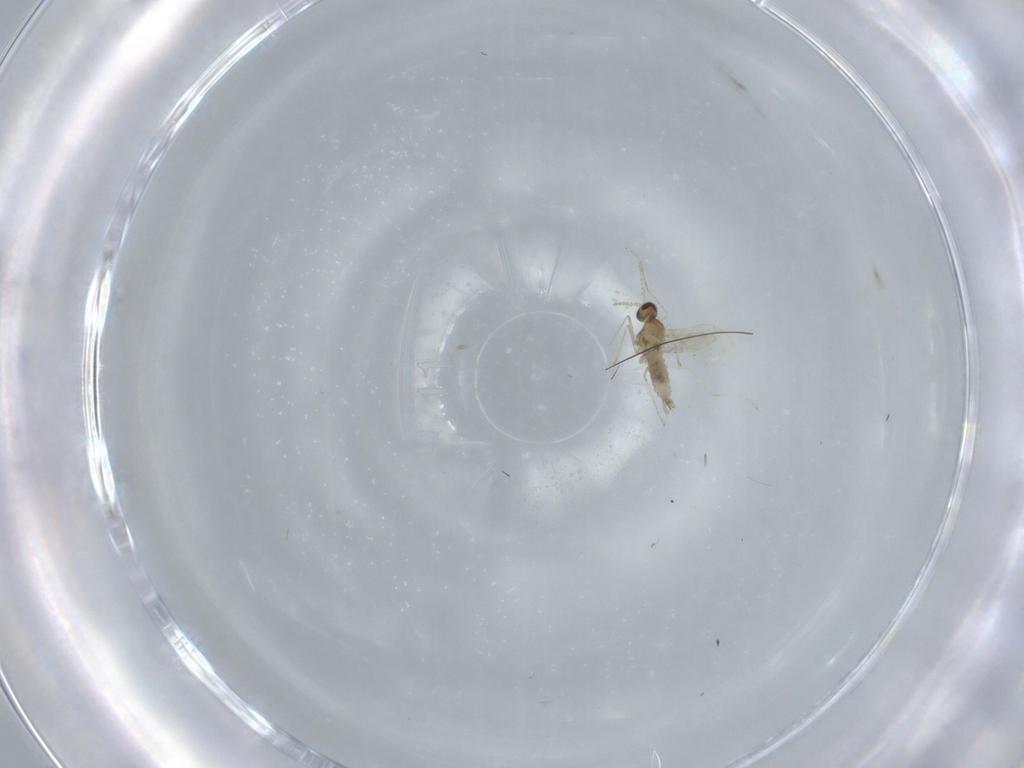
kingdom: Animalia
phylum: Arthropoda
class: Insecta
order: Diptera
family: Cecidomyiidae
